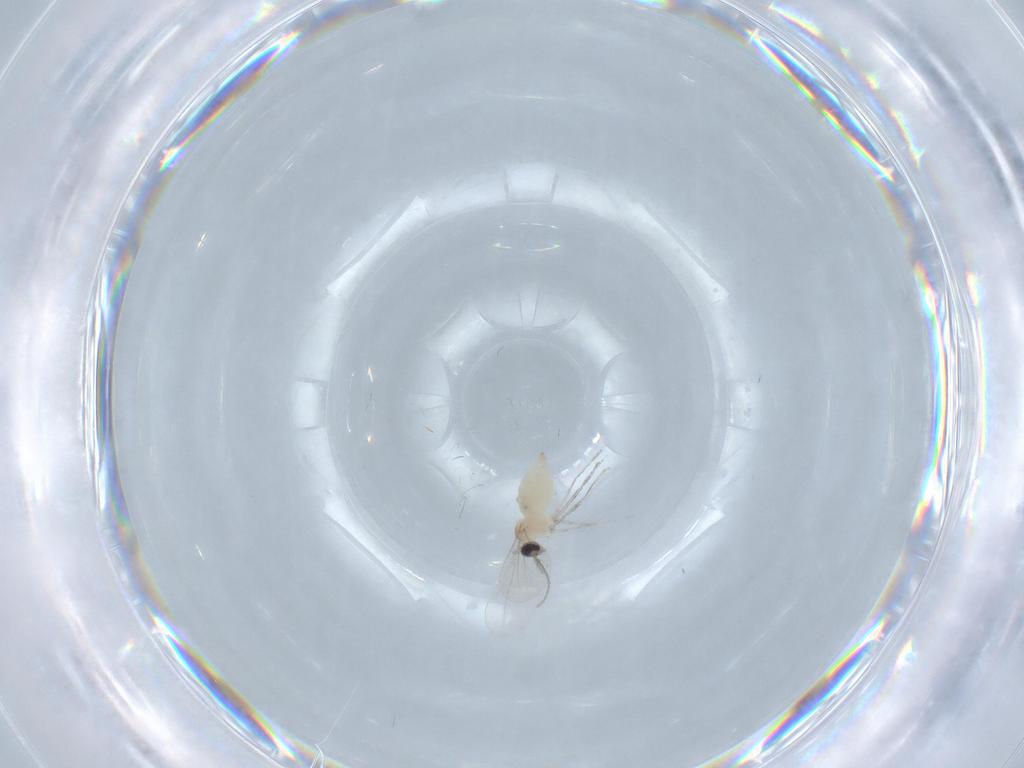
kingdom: Animalia
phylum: Arthropoda
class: Insecta
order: Diptera
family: Cecidomyiidae
